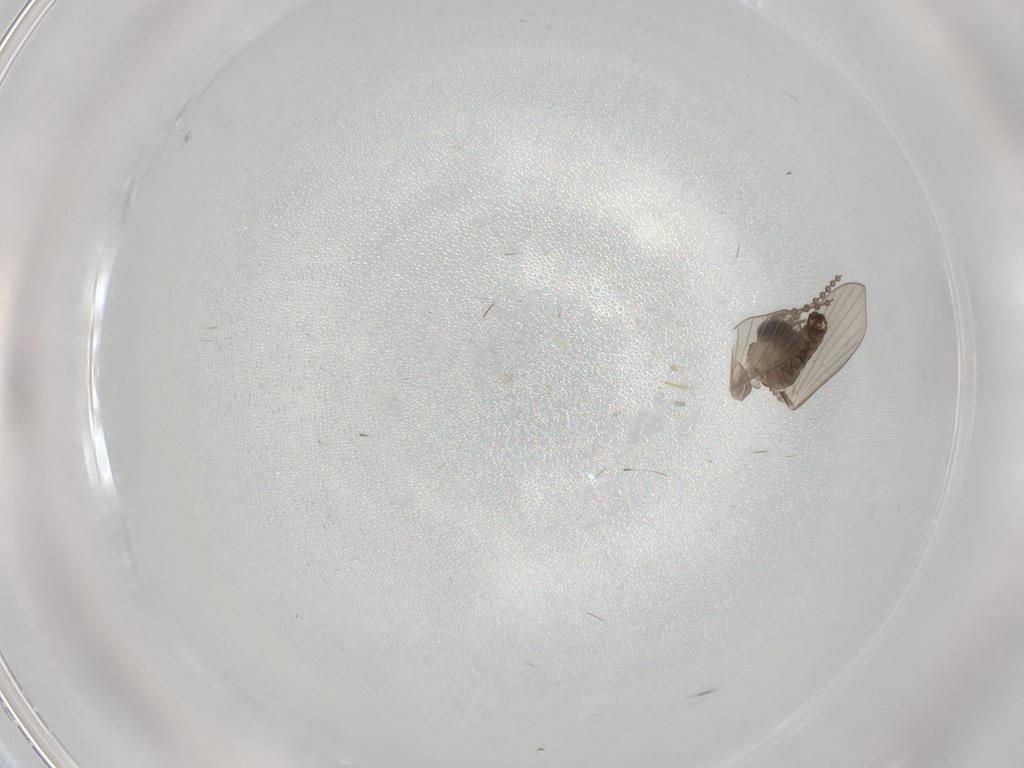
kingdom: Animalia
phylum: Arthropoda
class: Insecta
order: Diptera
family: Psychodidae
